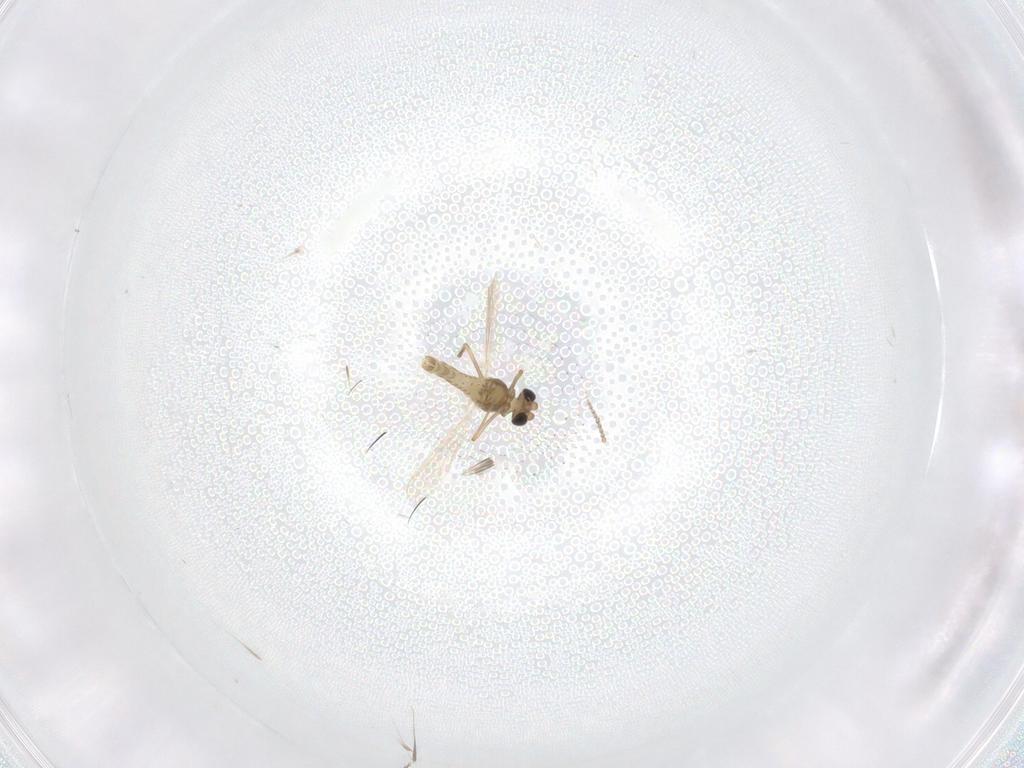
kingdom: Animalia
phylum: Arthropoda
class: Insecta
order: Diptera
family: Chironomidae
